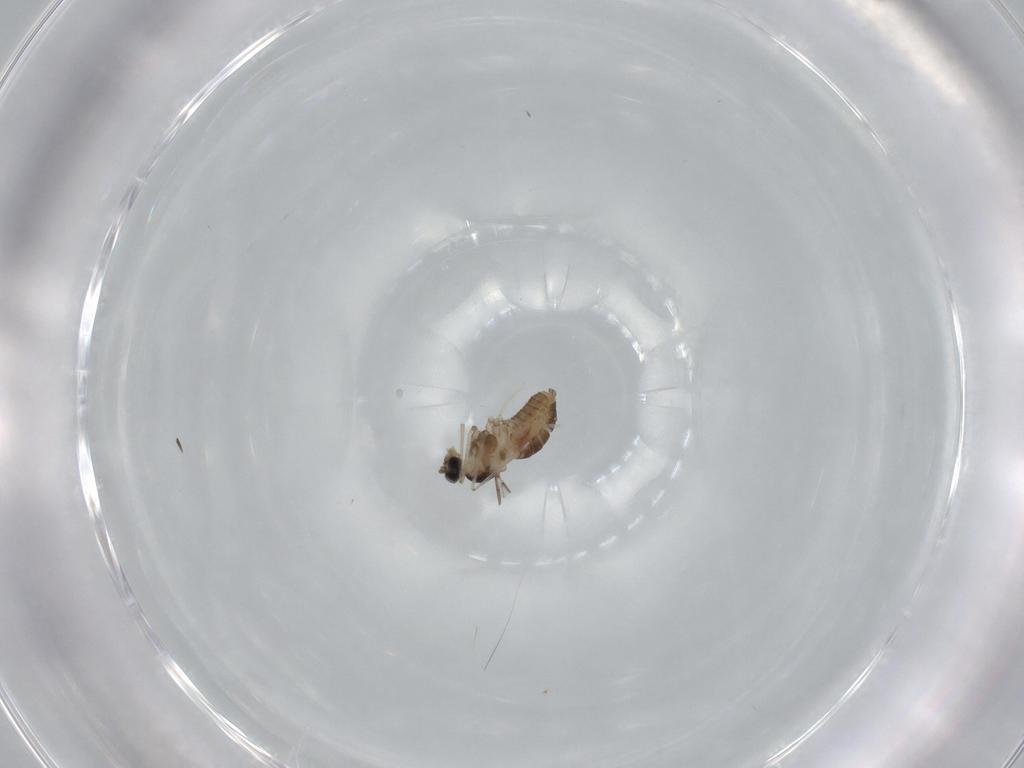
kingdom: Animalia
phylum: Arthropoda
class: Insecta
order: Diptera
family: Cecidomyiidae
